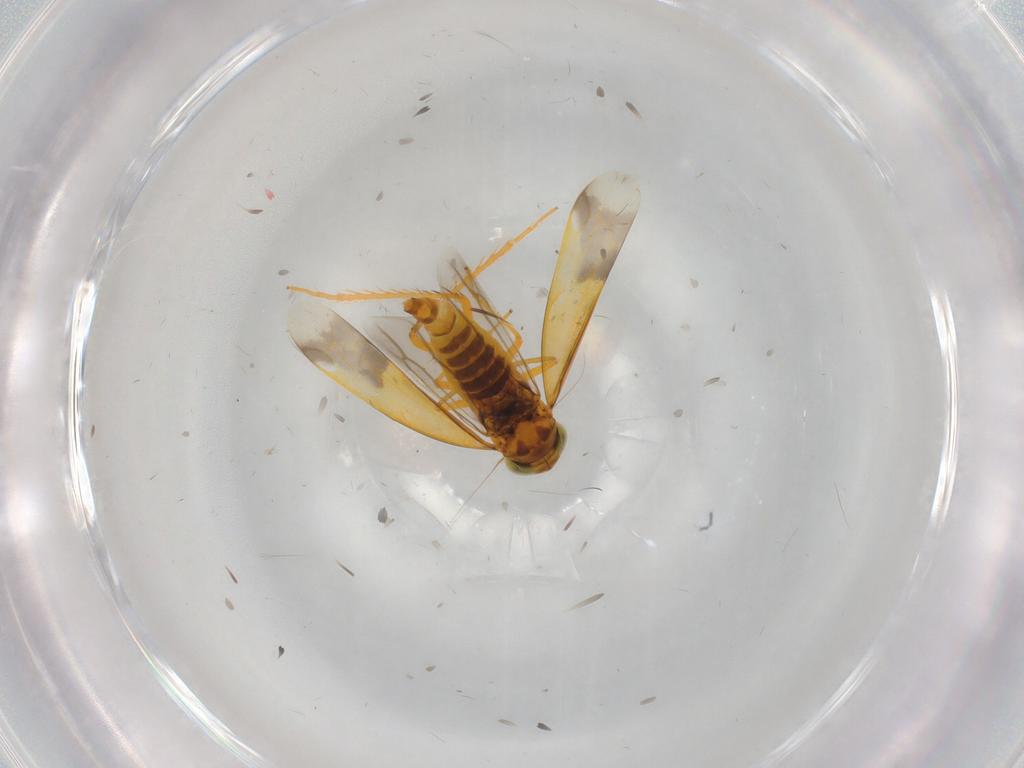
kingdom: Animalia
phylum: Arthropoda
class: Insecta
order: Hemiptera
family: Cicadellidae
